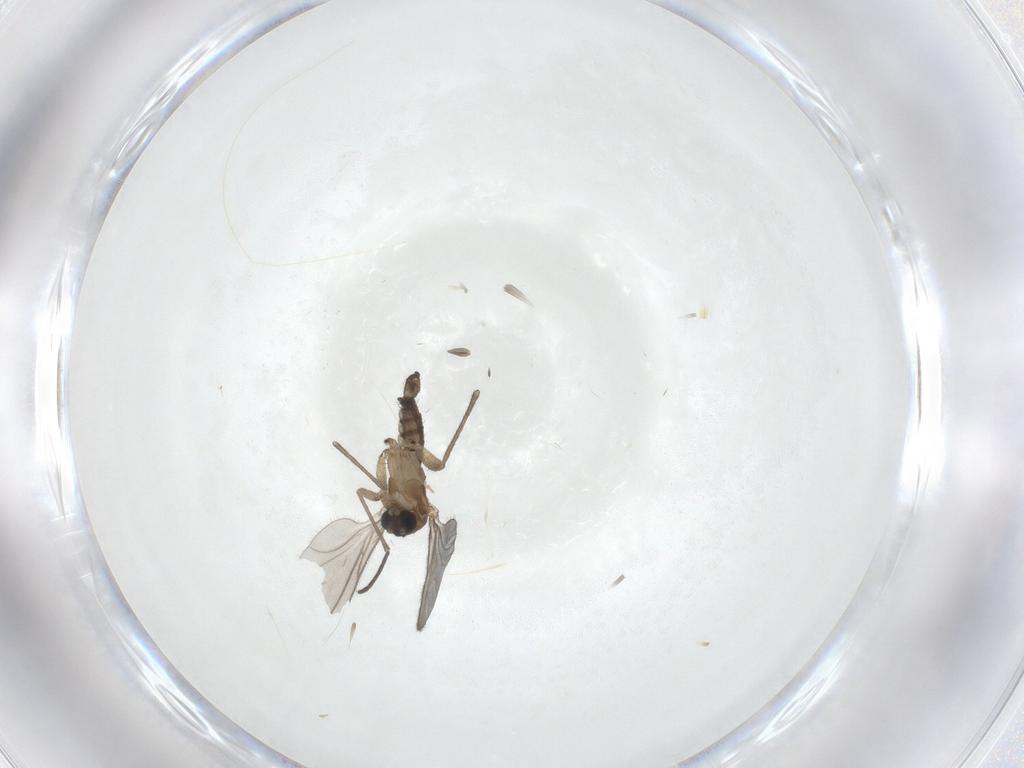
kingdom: Animalia
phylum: Arthropoda
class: Insecta
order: Diptera
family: Sciaridae
